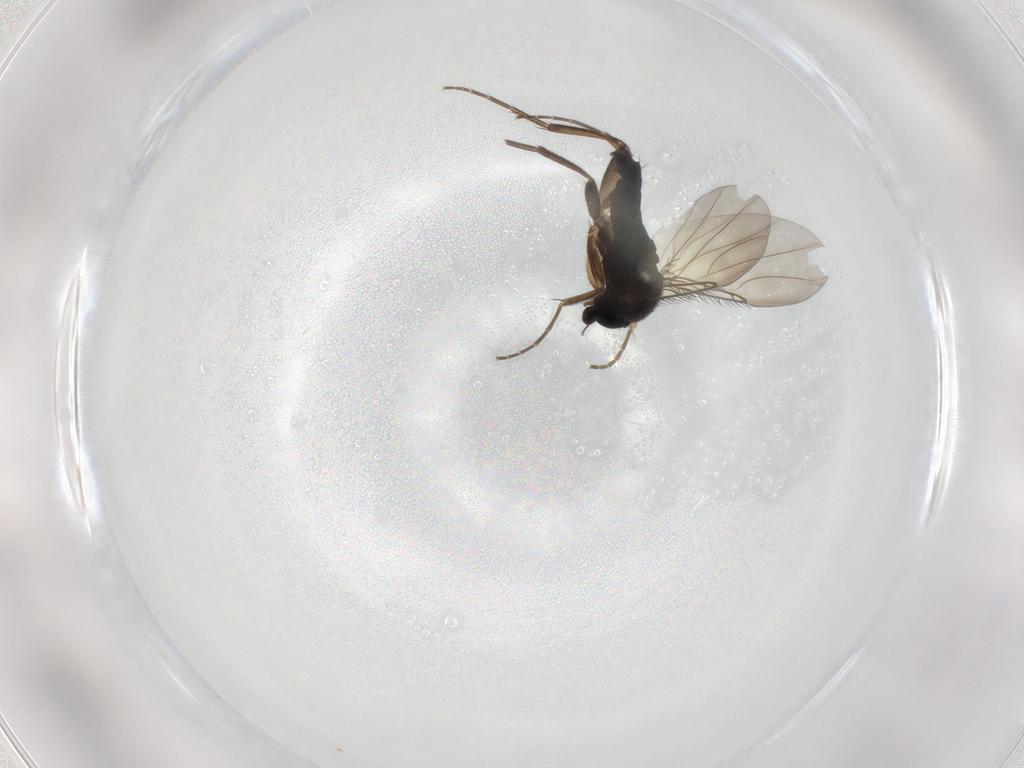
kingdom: Animalia
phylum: Arthropoda
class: Insecta
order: Diptera
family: Phoridae
